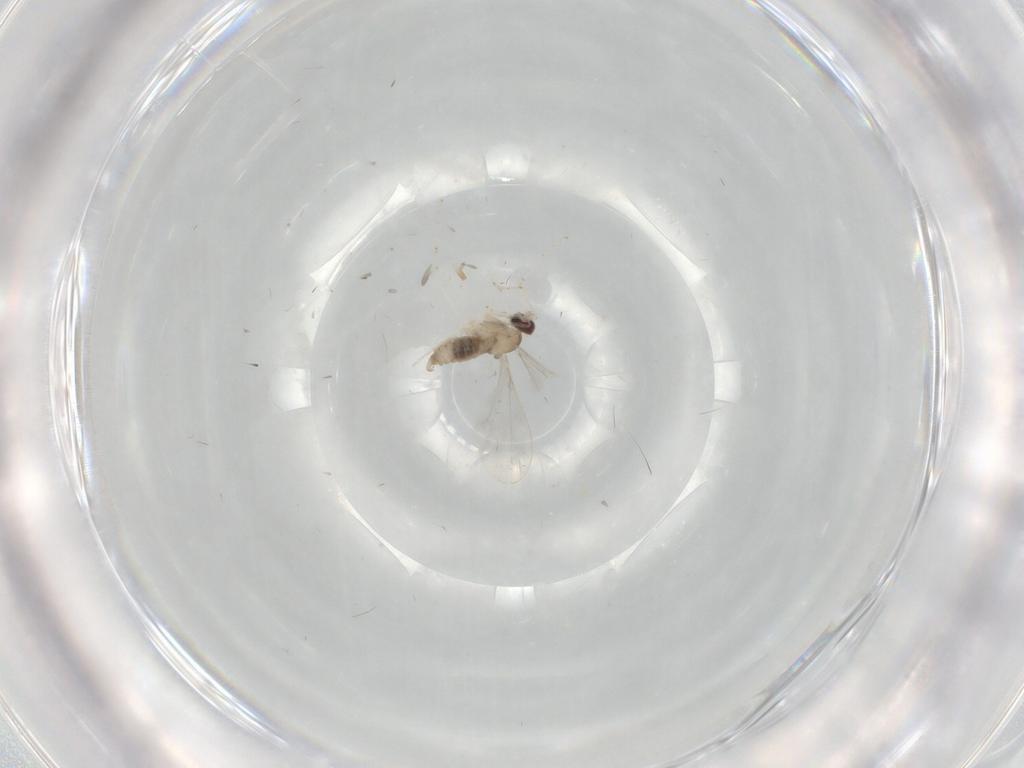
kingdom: Animalia
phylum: Arthropoda
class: Insecta
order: Diptera
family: Cecidomyiidae
